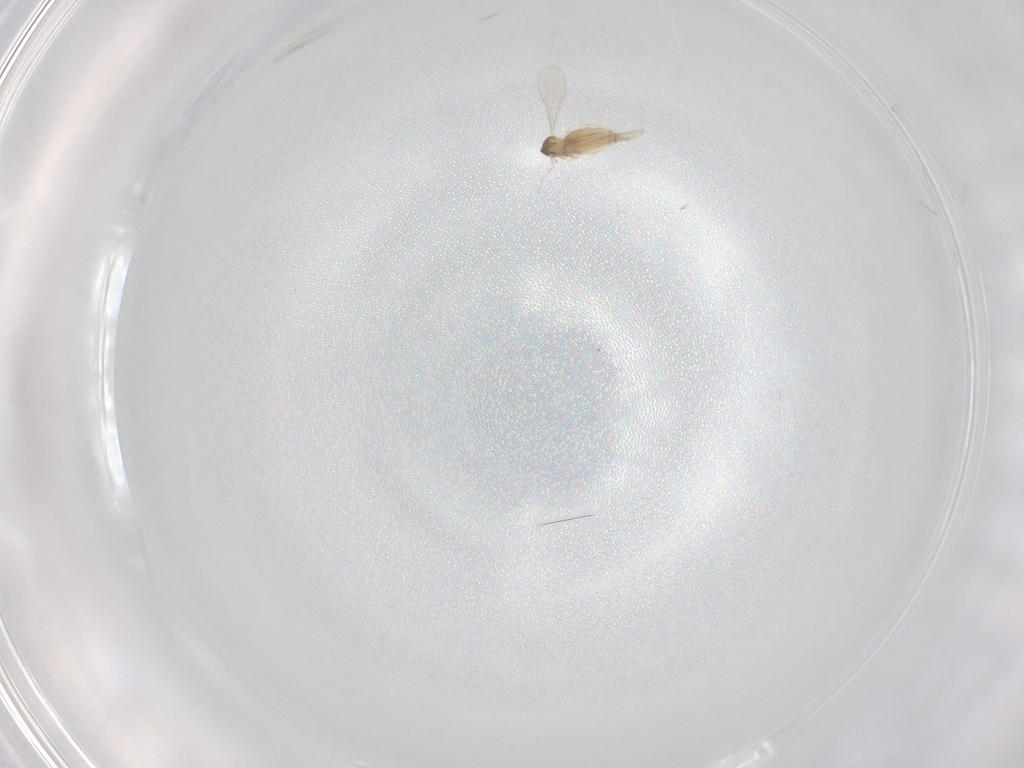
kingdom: Animalia
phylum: Arthropoda
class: Insecta
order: Diptera
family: Cecidomyiidae
